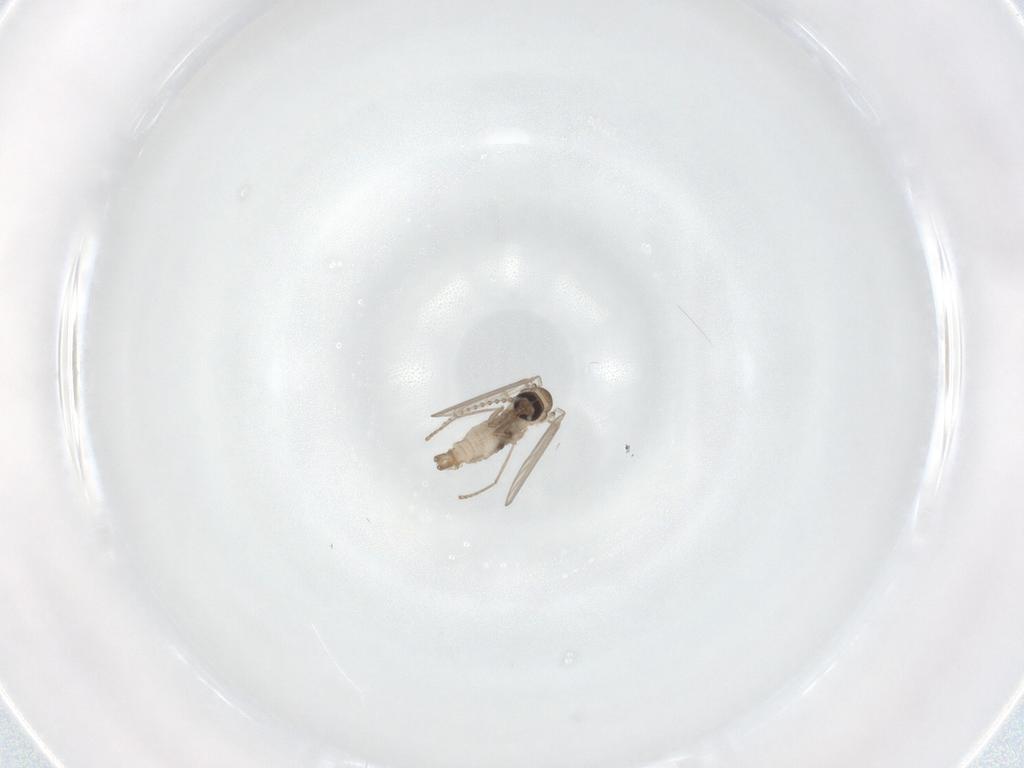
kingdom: Animalia
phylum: Arthropoda
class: Insecta
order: Diptera
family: Psychodidae
